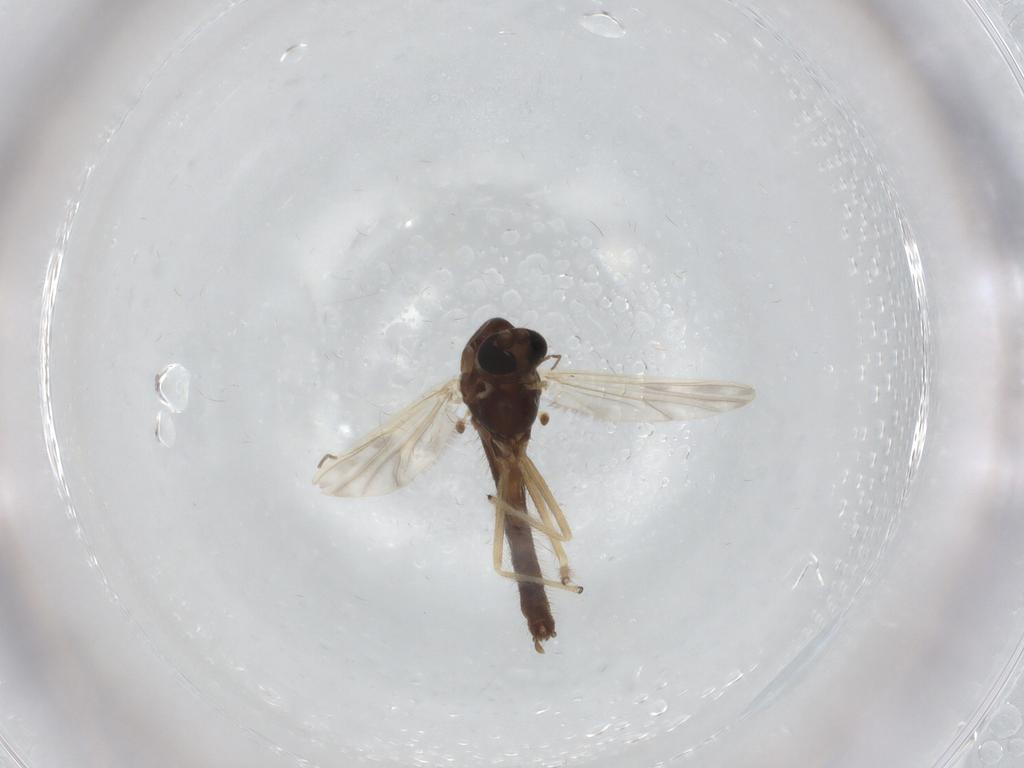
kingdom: Animalia
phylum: Arthropoda
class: Insecta
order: Diptera
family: Chironomidae
